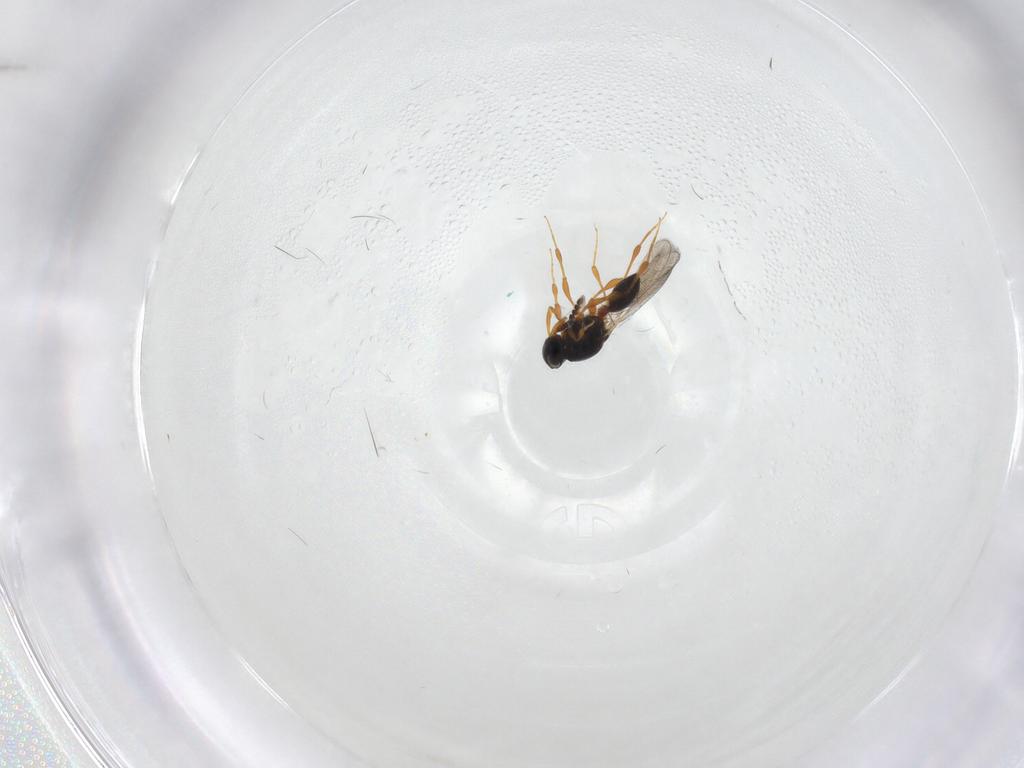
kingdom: Animalia
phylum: Arthropoda
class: Insecta
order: Hymenoptera
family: Platygastridae
